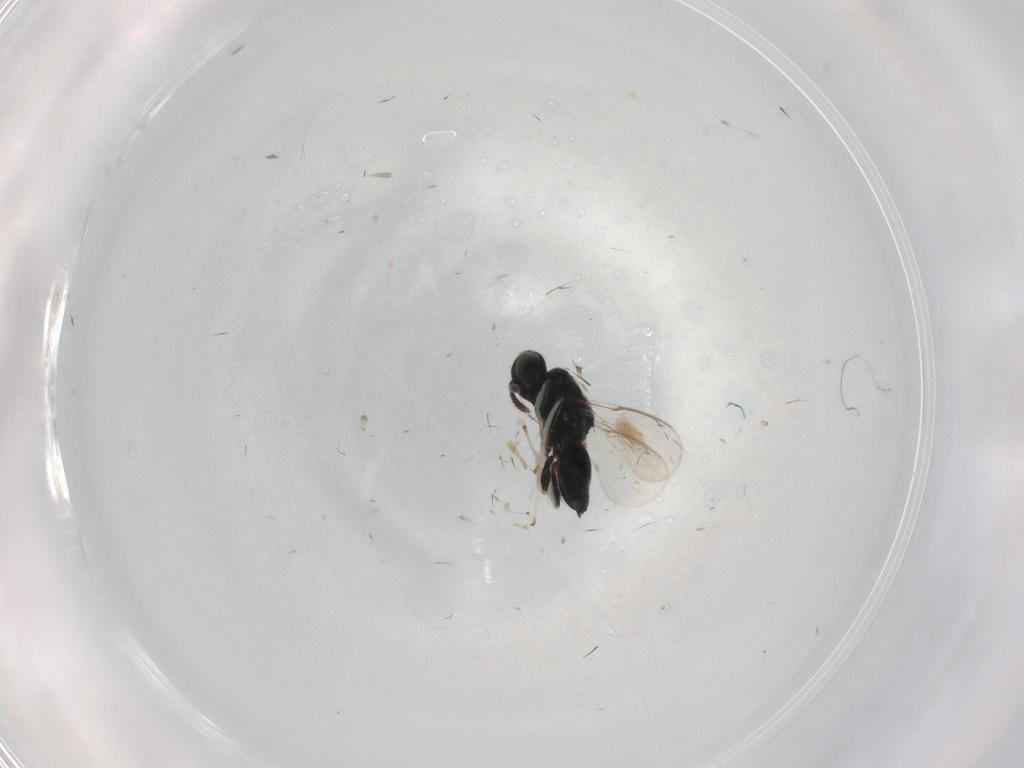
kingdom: Animalia
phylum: Arthropoda
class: Insecta
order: Hymenoptera
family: Herbertiidae
